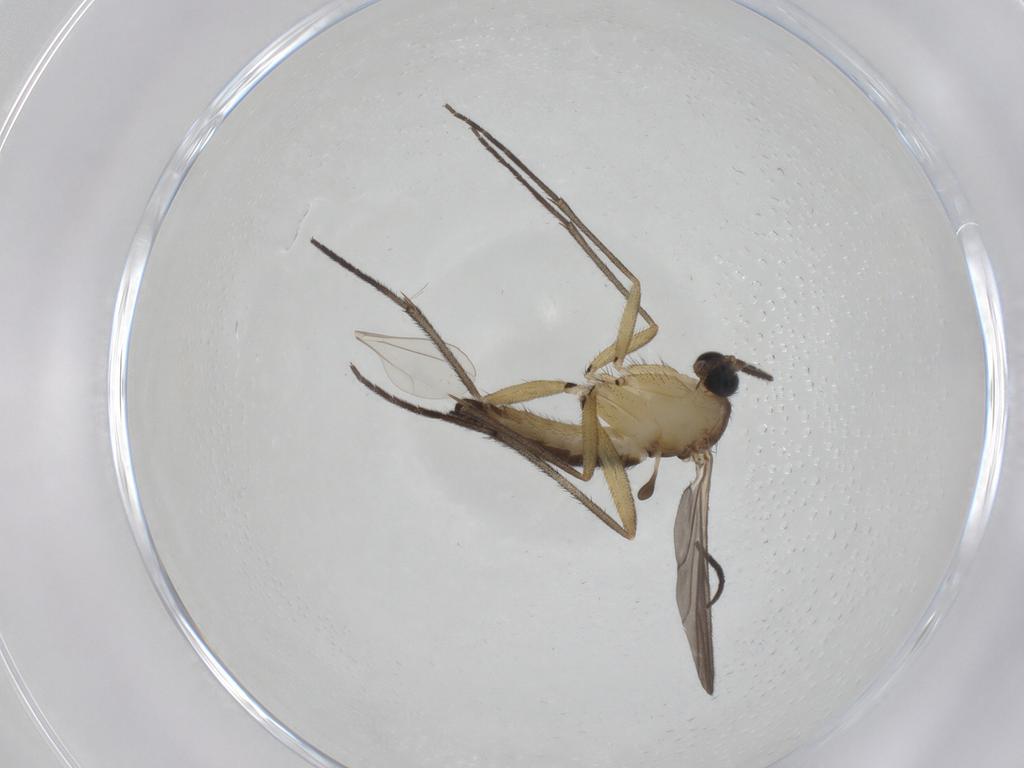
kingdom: Animalia
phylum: Arthropoda
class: Insecta
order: Diptera
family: Sciaridae
